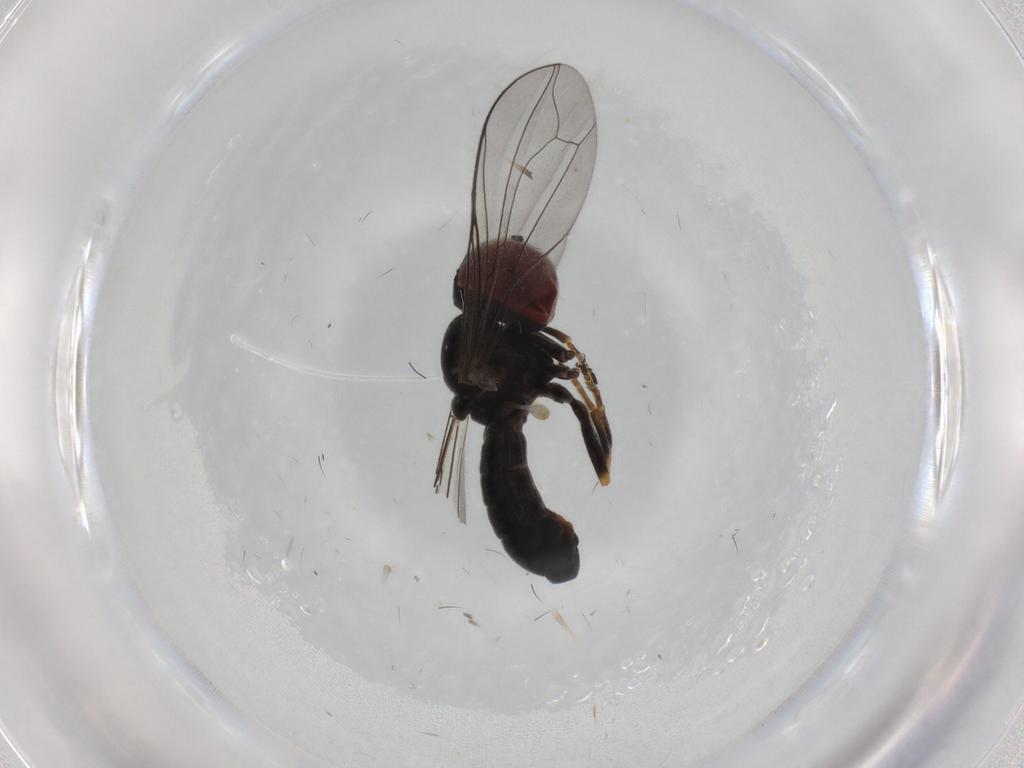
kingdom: Animalia
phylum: Arthropoda
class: Insecta
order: Diptera
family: Pipunculidae
